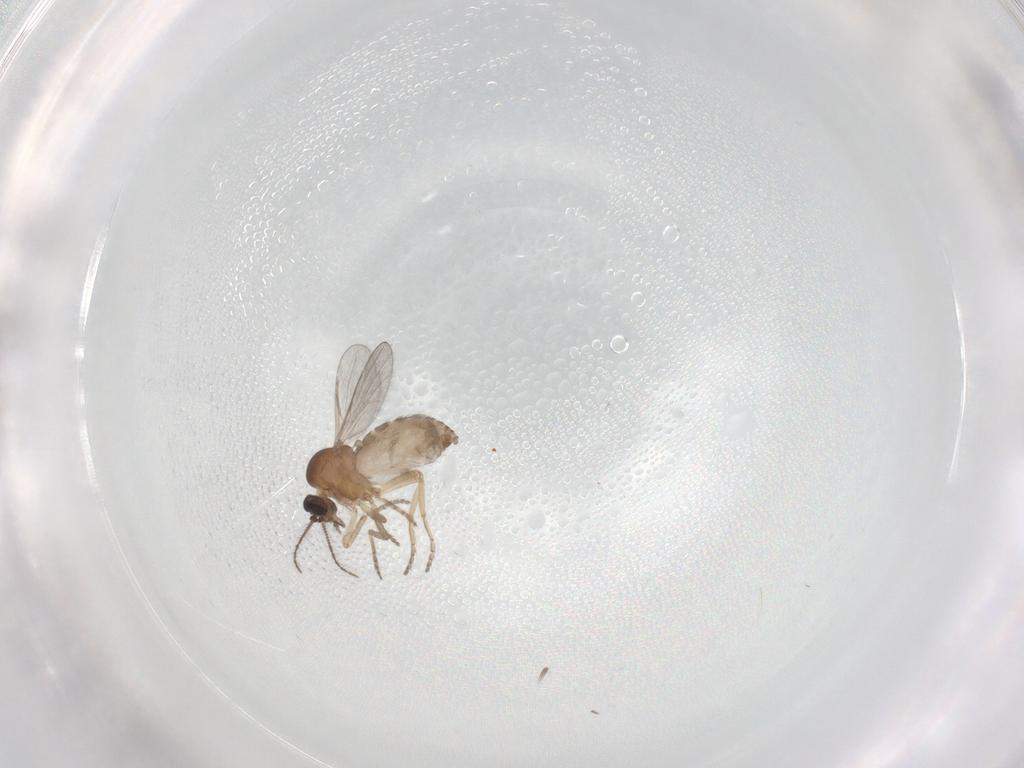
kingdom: Animalia
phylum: Arthropoda
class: Insecta
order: Diptera
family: Ceratopogonidae
